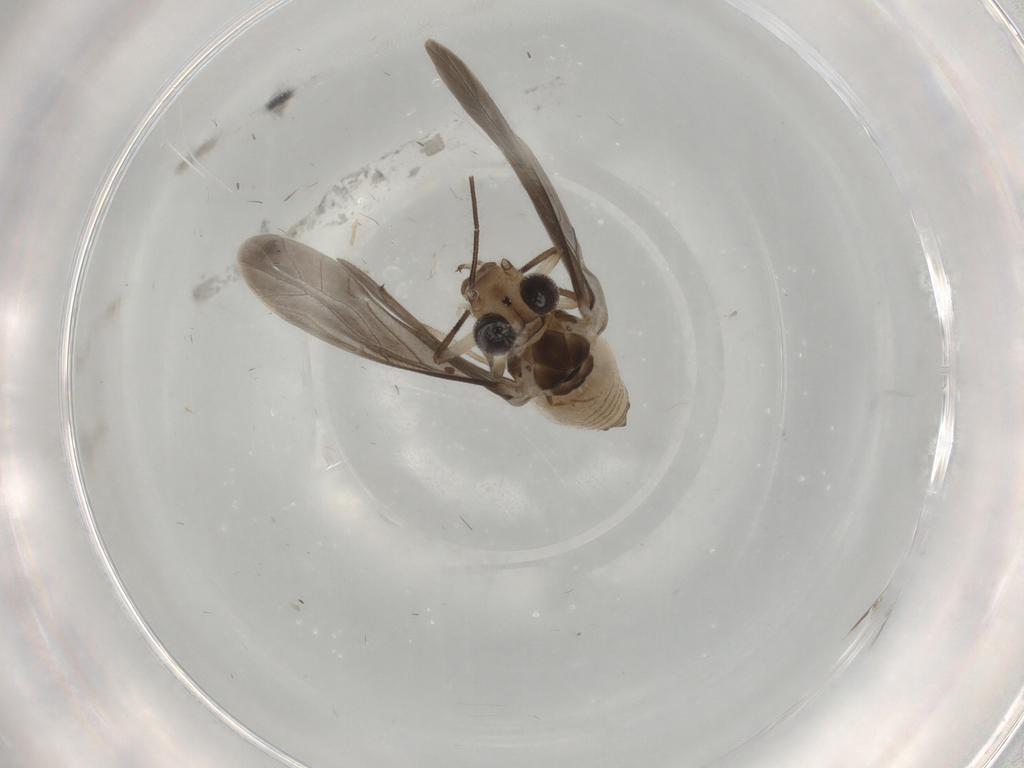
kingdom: Animalia
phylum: Arthropoda
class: Insecta
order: Psocodea
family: Caeciliusidae
